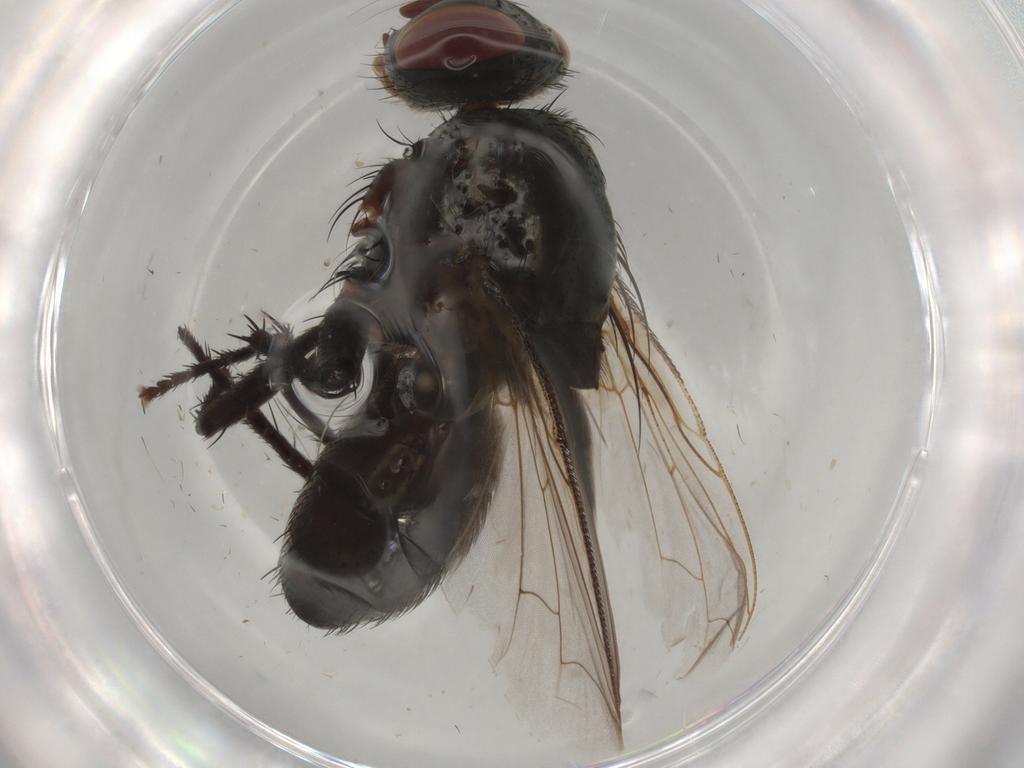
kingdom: Animalia
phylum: Arthropoda
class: Insecta
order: Diptera
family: Sarcophagidae
